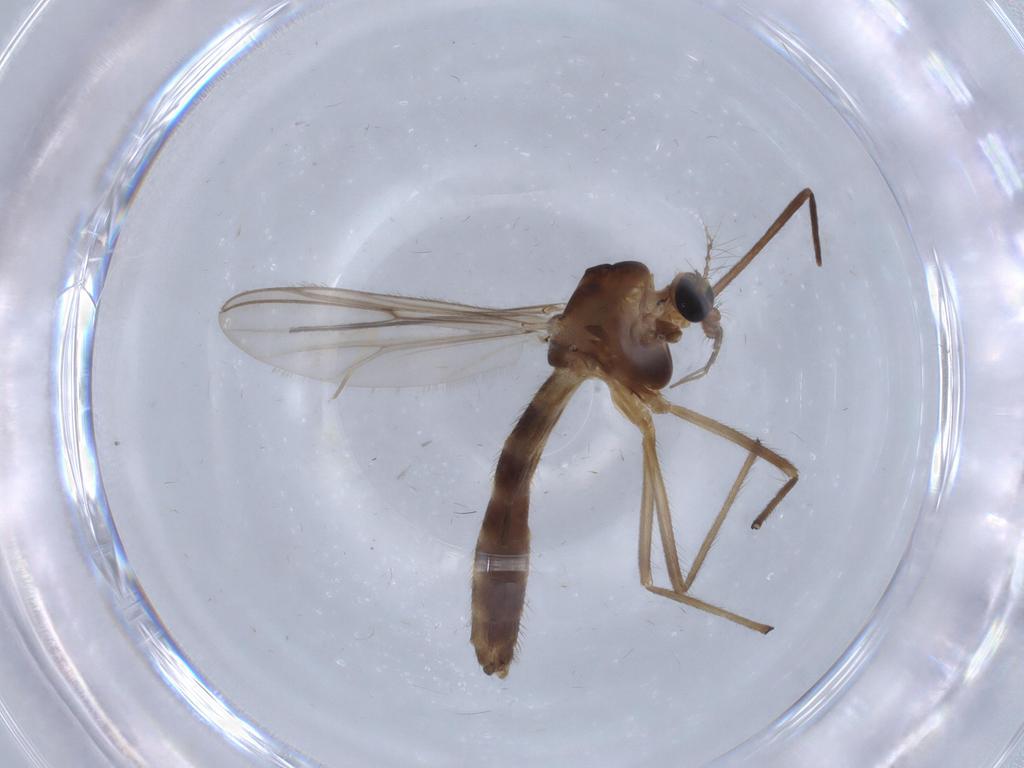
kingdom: Animalia
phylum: Arthropoda
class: Insecta
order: Diptera
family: Chironomidae
